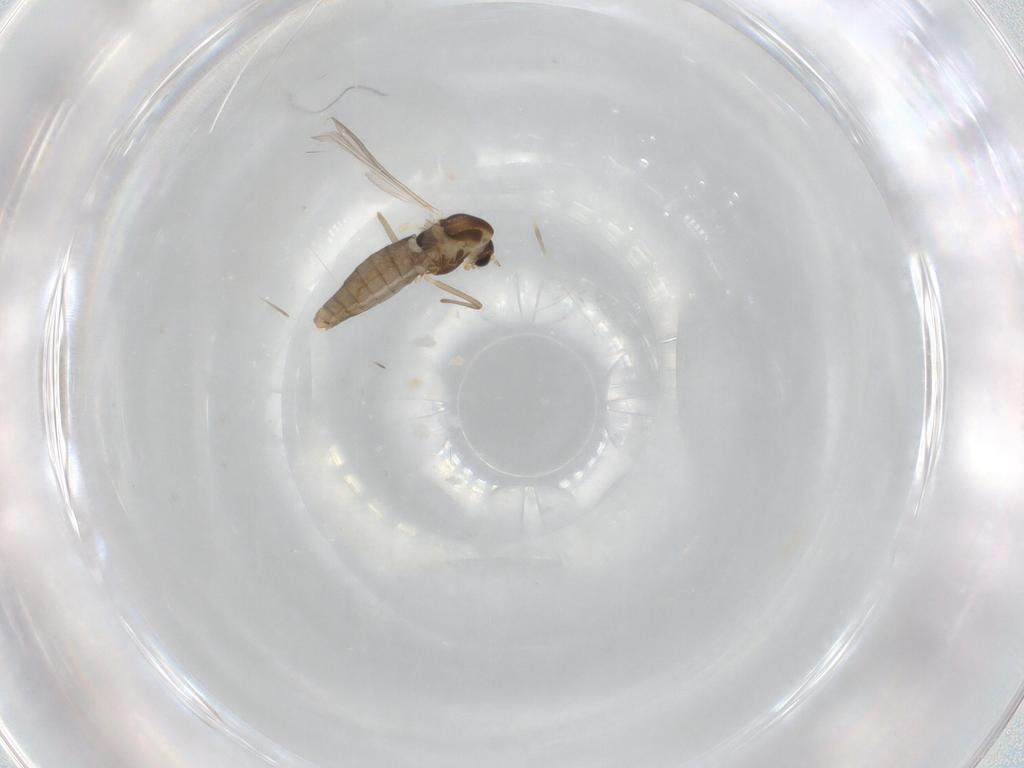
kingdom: Animalia
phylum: Arthropoda
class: Insecta
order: Diptera
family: Chironomidae
